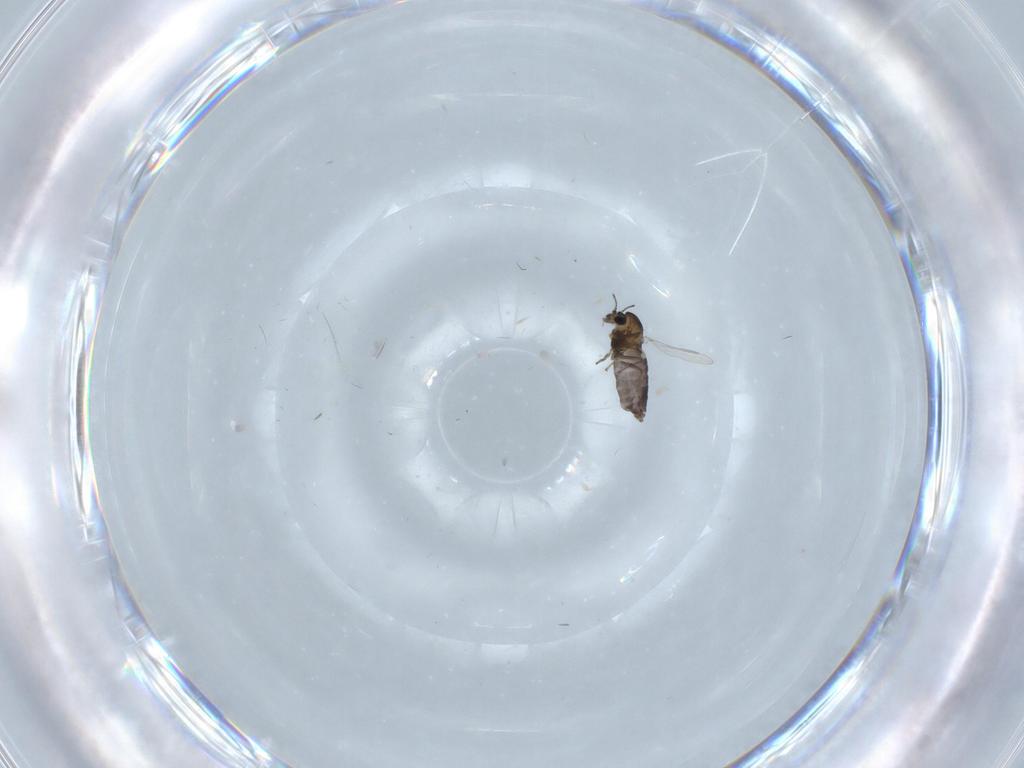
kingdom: Animalia
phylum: Arthropoda
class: Insecta
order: Diptera
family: Chironomidae
